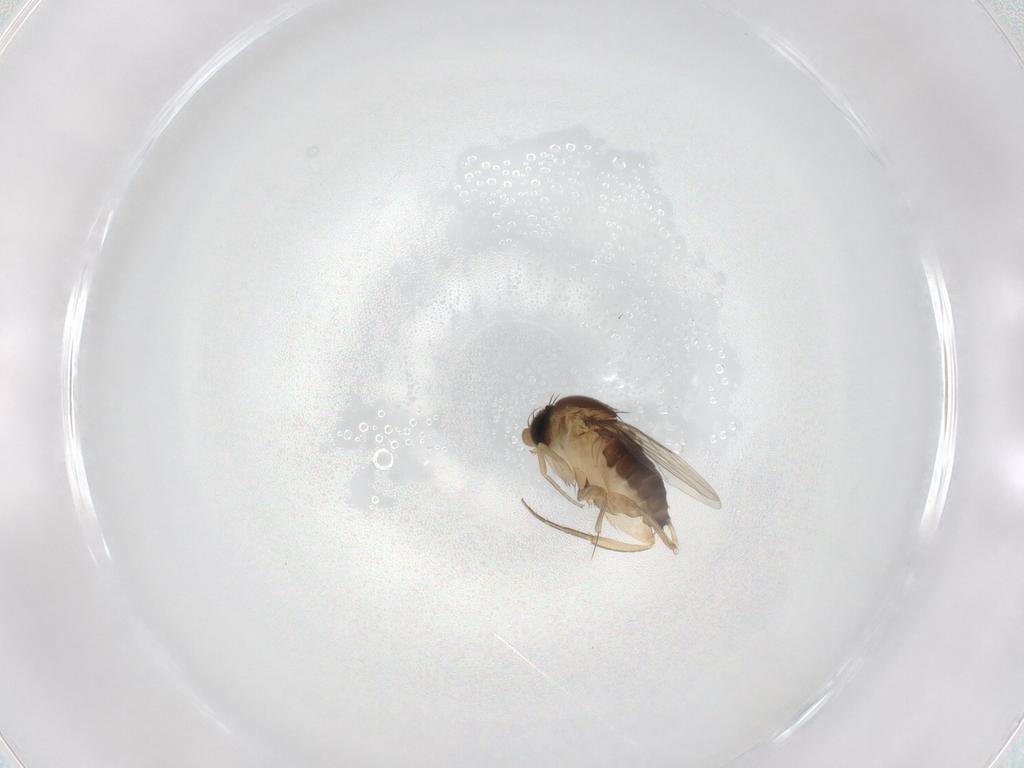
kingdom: Animalia
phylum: Arthropoda
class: Insecta
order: Diptera
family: Phoridae
